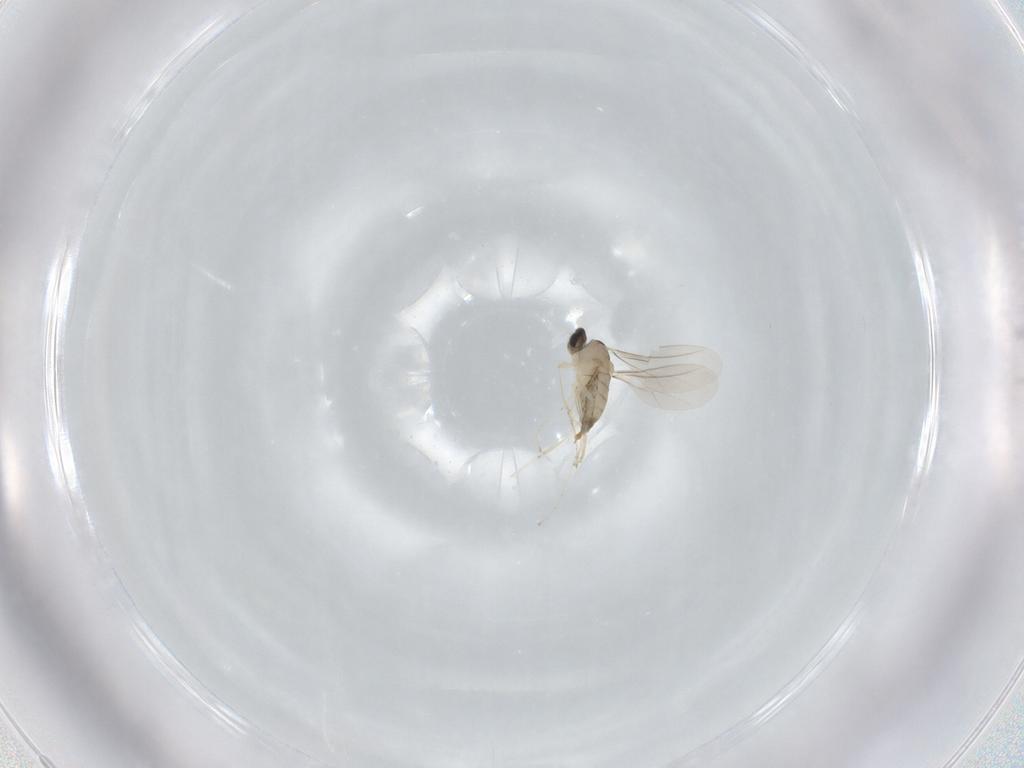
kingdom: Animalia
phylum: Arthropoda
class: Insecta
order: Diptera
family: Cecidomyiidae
